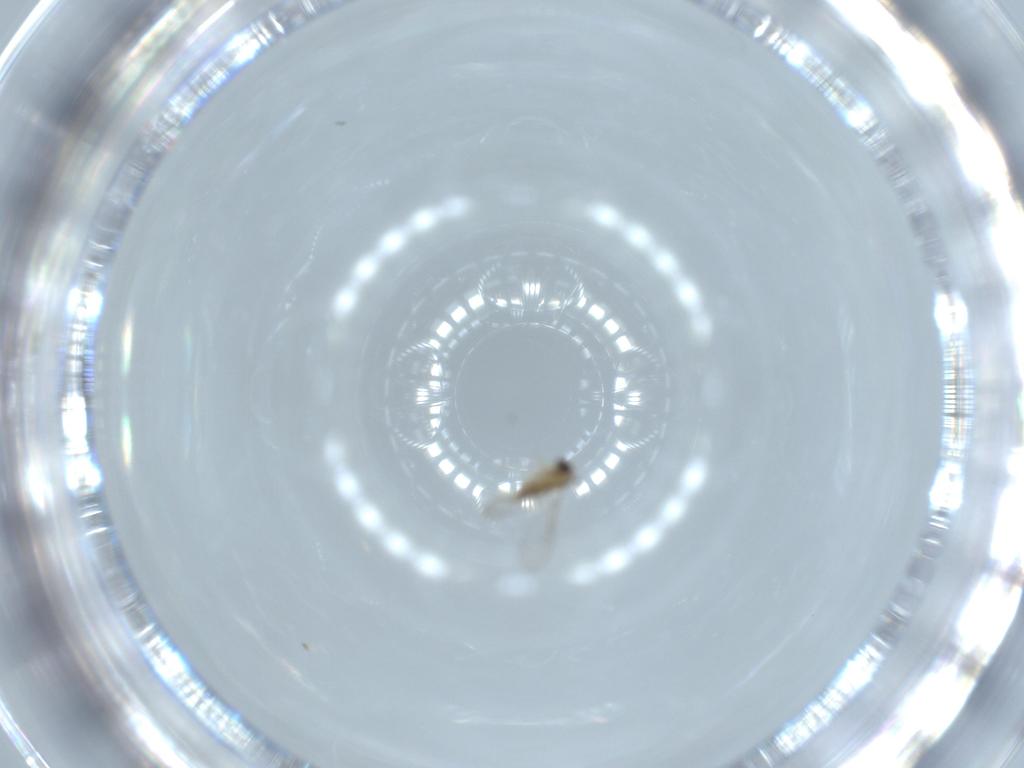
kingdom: Animalia
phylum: Arthropoda
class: Insecta
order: Diptera
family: Cecidomyiidae
